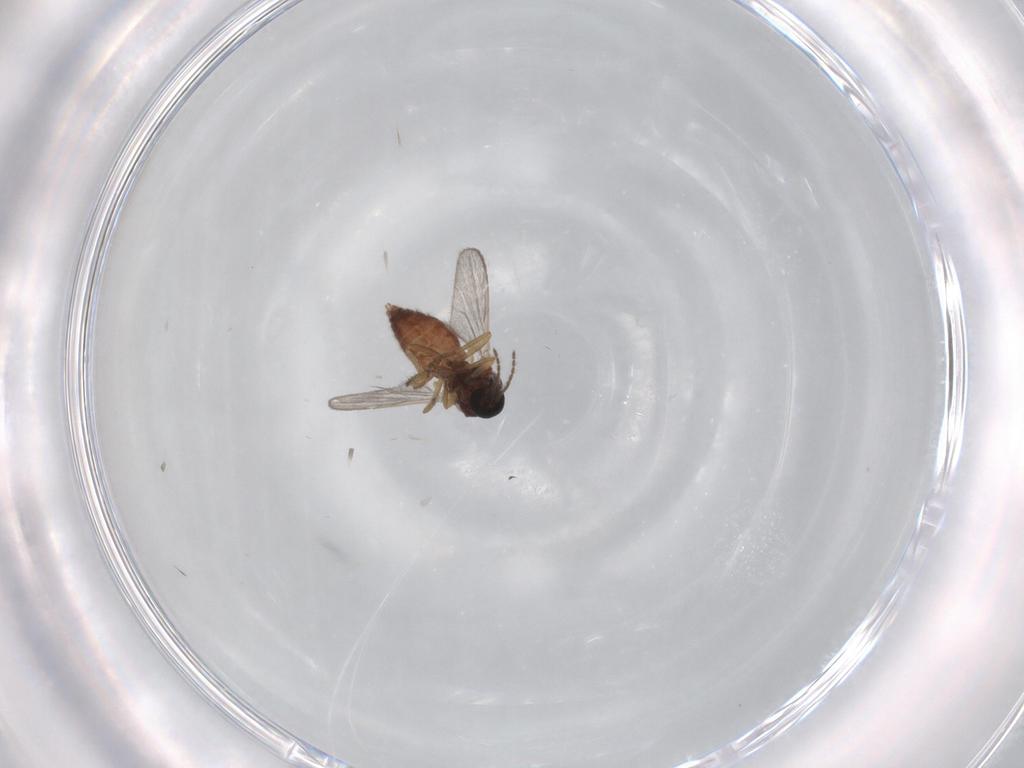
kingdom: Animalia
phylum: Arthropoda
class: Insecta
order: Diptera
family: Ceratopogonidae
